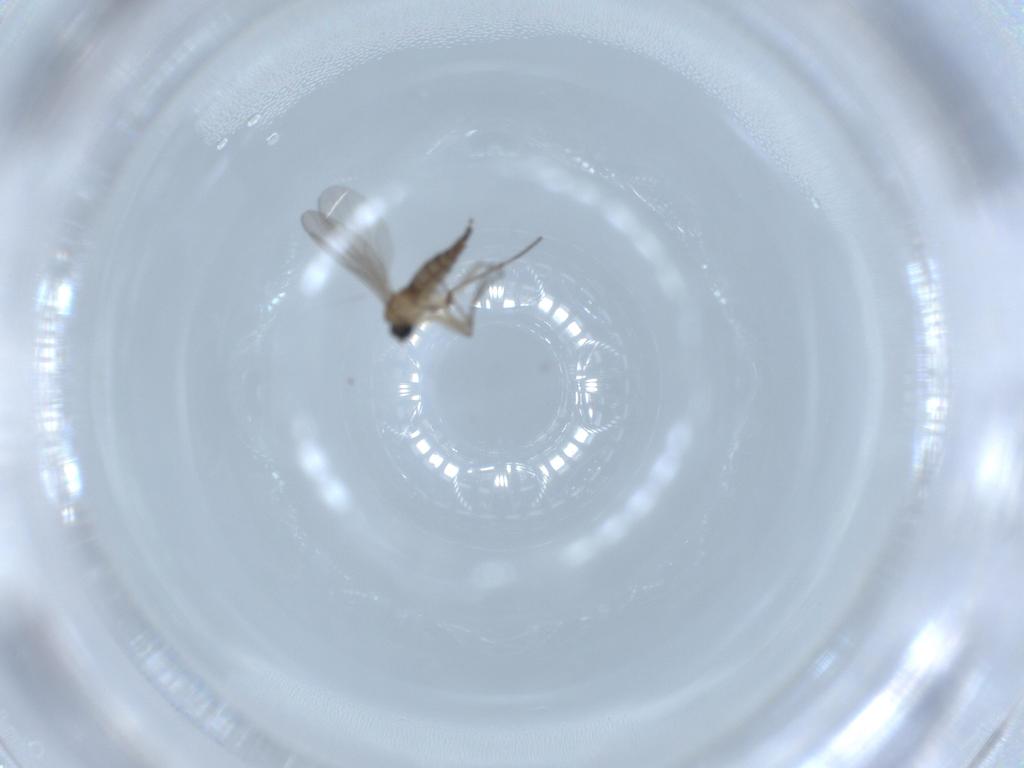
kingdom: Animalia
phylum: Arthropoda
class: Insecta
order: Diptera
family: Sciaridae
